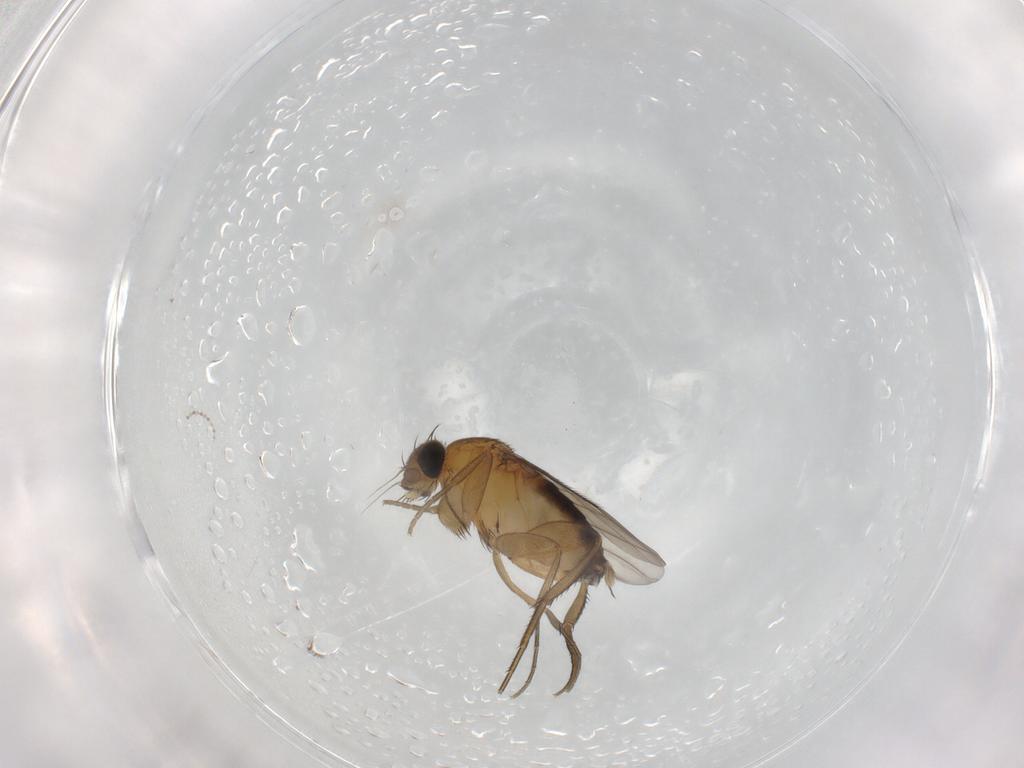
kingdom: Animalia
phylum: Arthropoda
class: Insecta
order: Diptera
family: Phoridae
